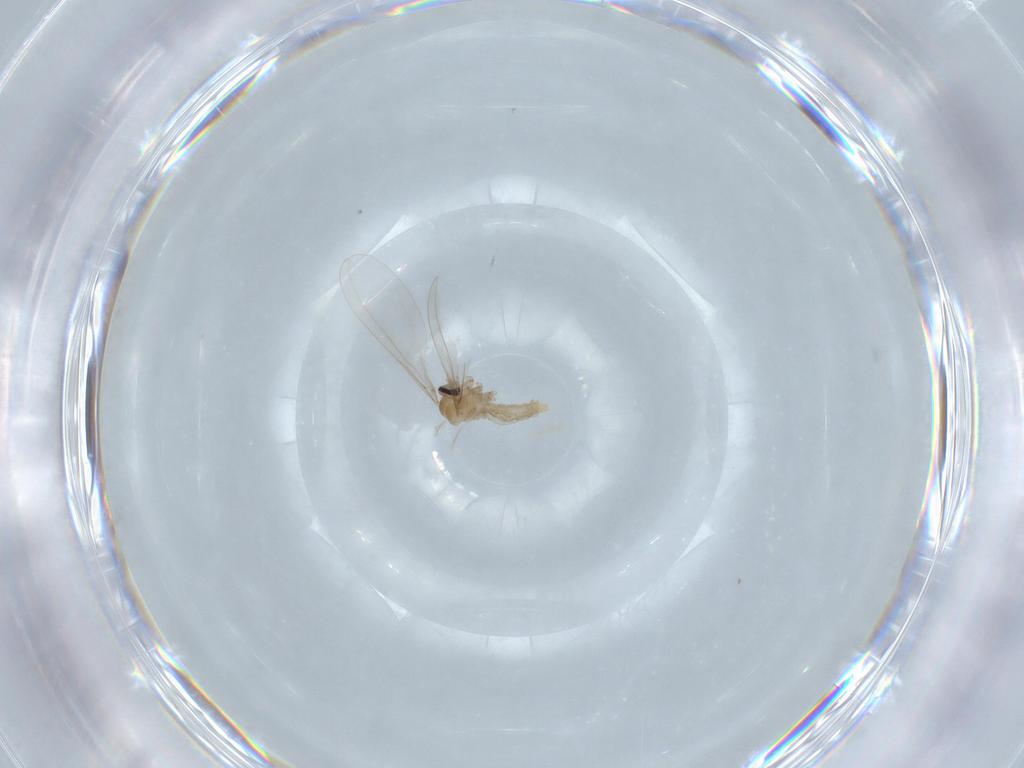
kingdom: Animalia
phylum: Arthropoda
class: Insecta
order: Diptera
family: Cecidomyiidae
